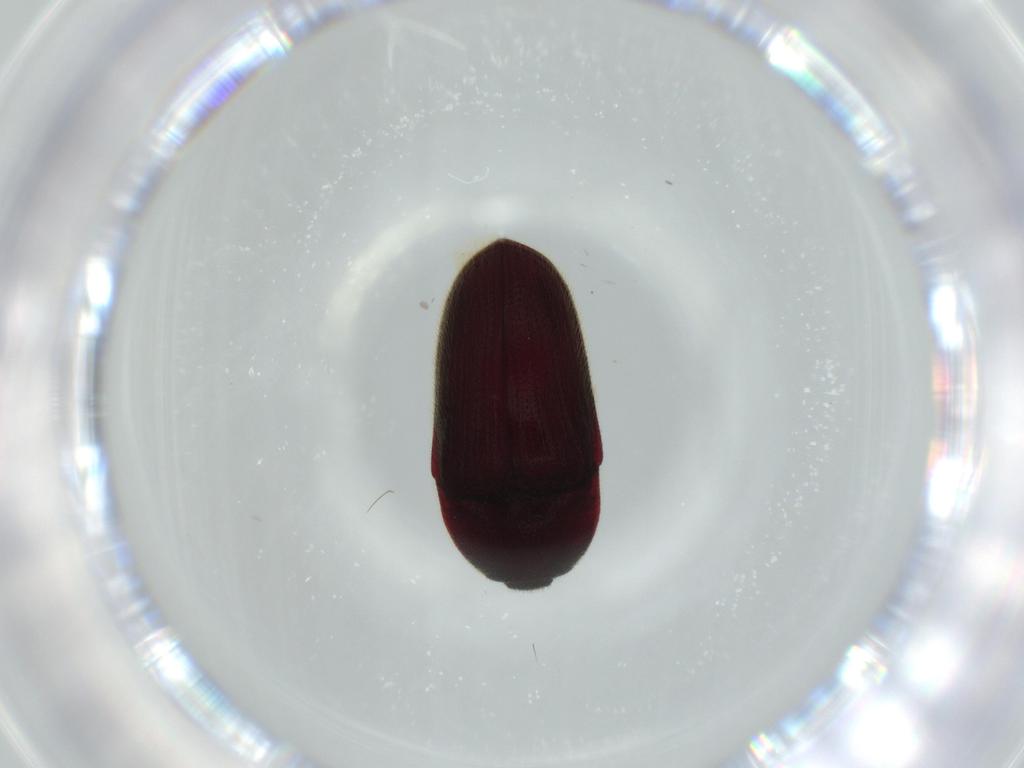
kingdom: Animalia
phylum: Arthropoda
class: Insecta
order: Coleoptera
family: Throscidae
